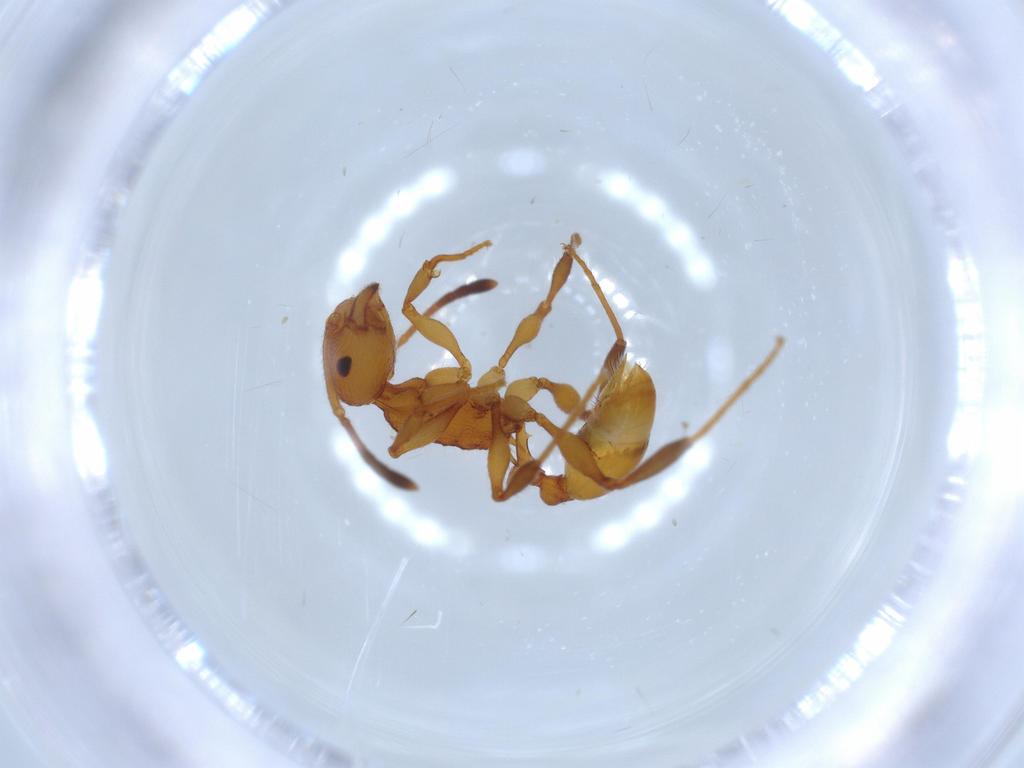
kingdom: Animalia
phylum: Arthropoda
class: Insecta
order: Hymenoptera
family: Formicidae
